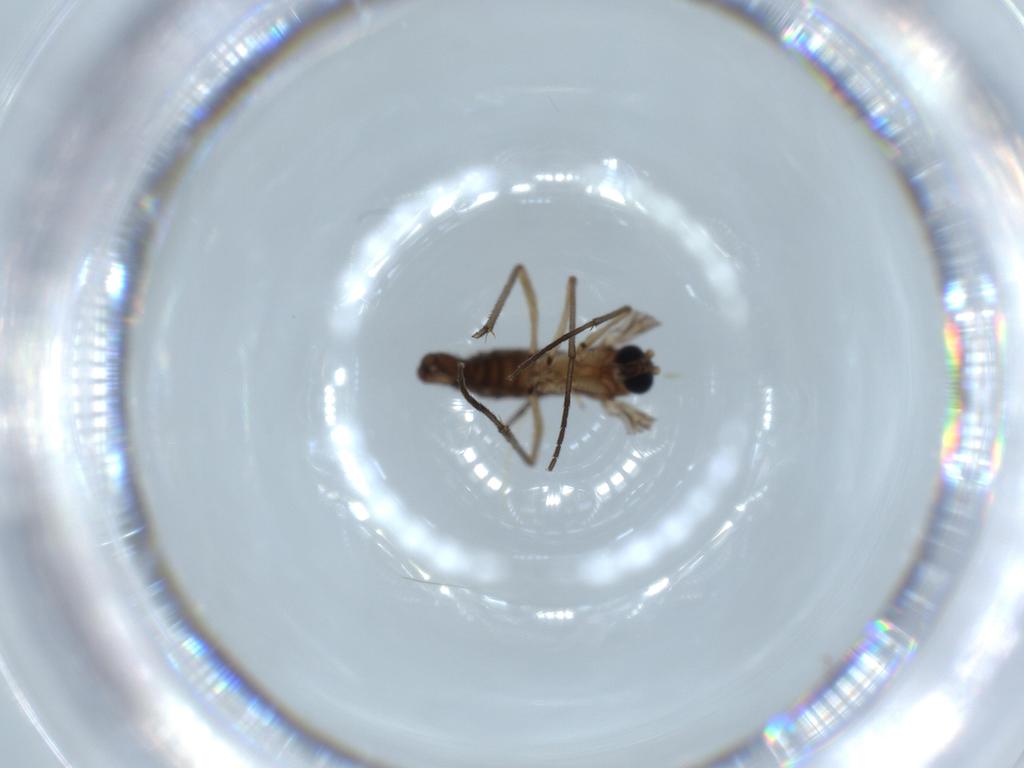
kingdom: Animalia
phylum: Arthropoda
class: Insecta
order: Diptera
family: Sciaridae
